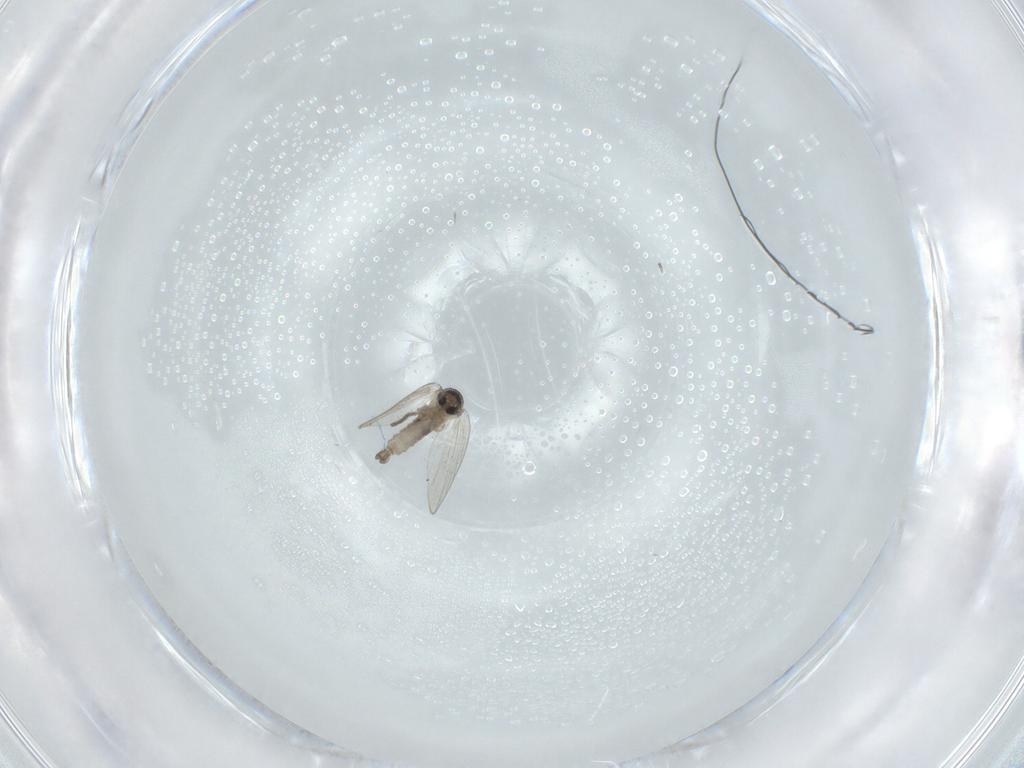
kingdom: Animalia
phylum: Arthropoda
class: Insecta
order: Diptera
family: Psychodidae
